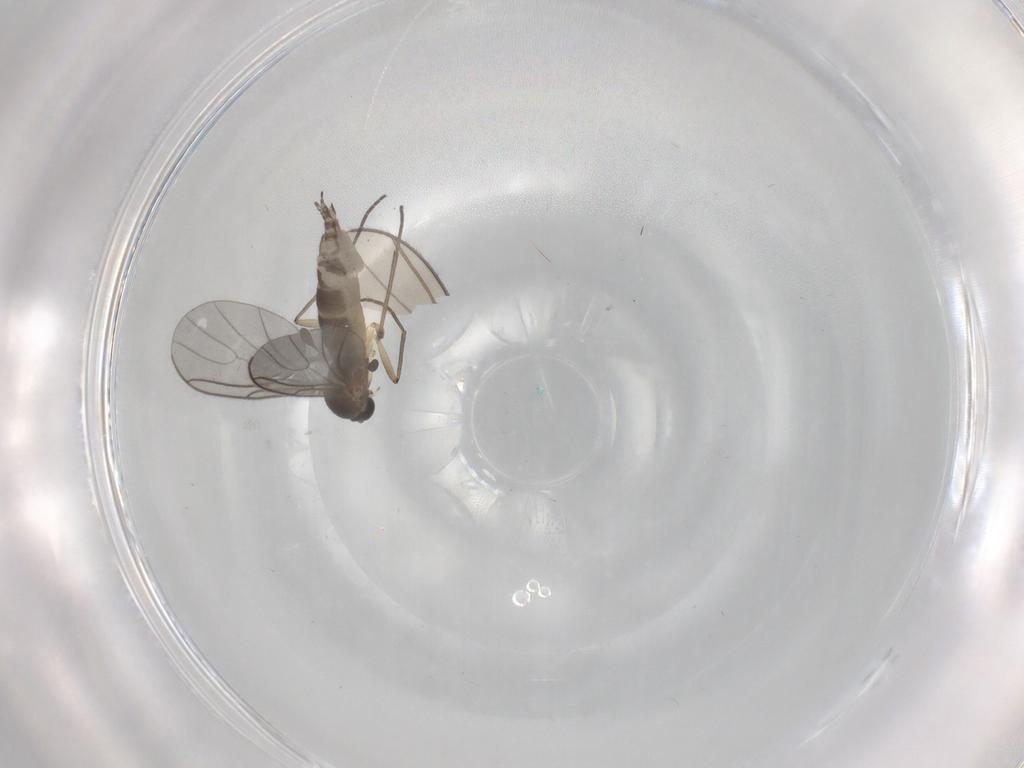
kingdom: Animalia
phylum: Arthropoda
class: Insecta
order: Diptera
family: Sciaridae
